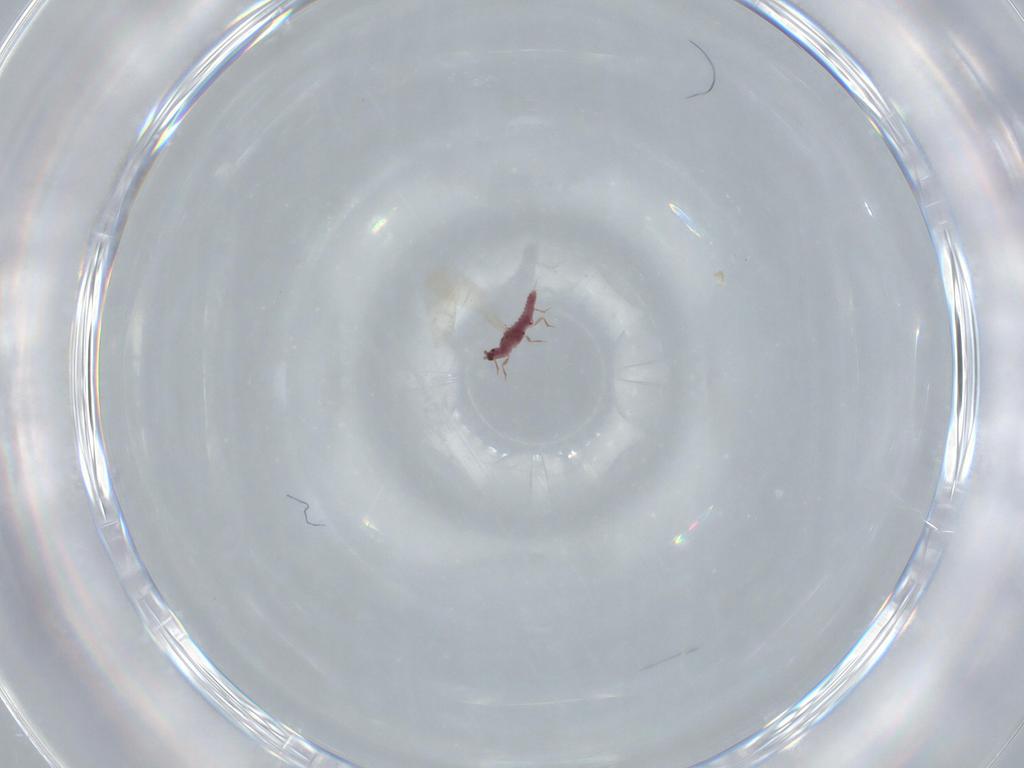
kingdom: Animalia
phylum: Arthropoda
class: Insecta
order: Hemiptera
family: Pseudococcidae
